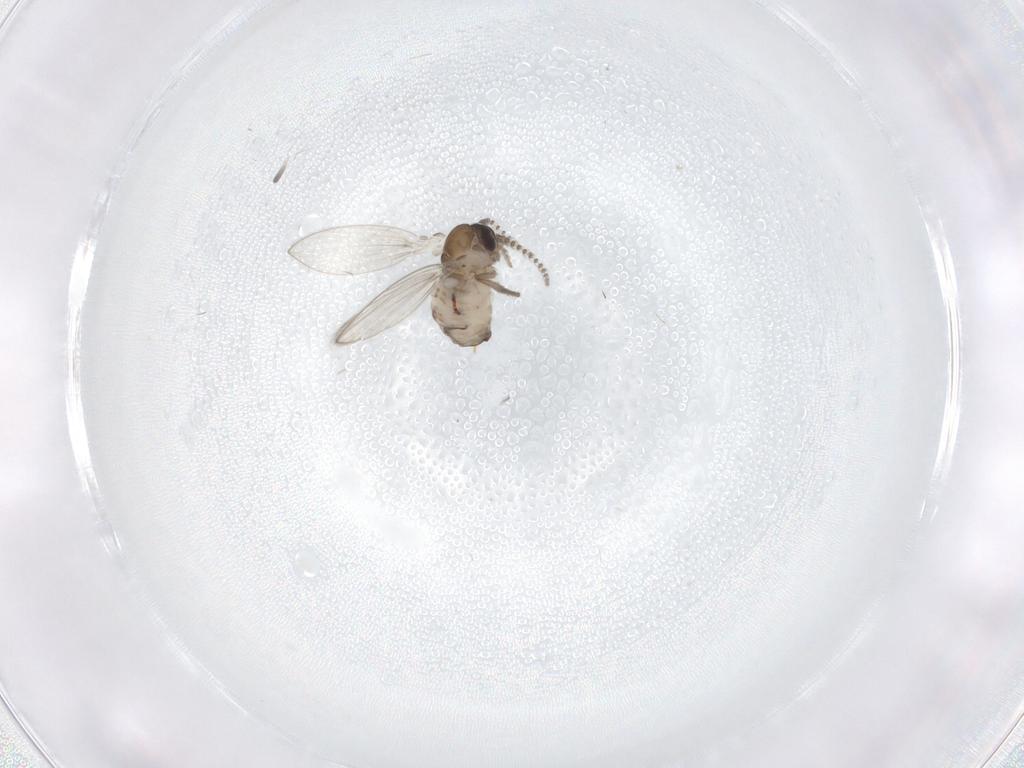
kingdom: Animalia
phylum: Arthropoda
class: Insecta
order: Diptera
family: Psychodidae
